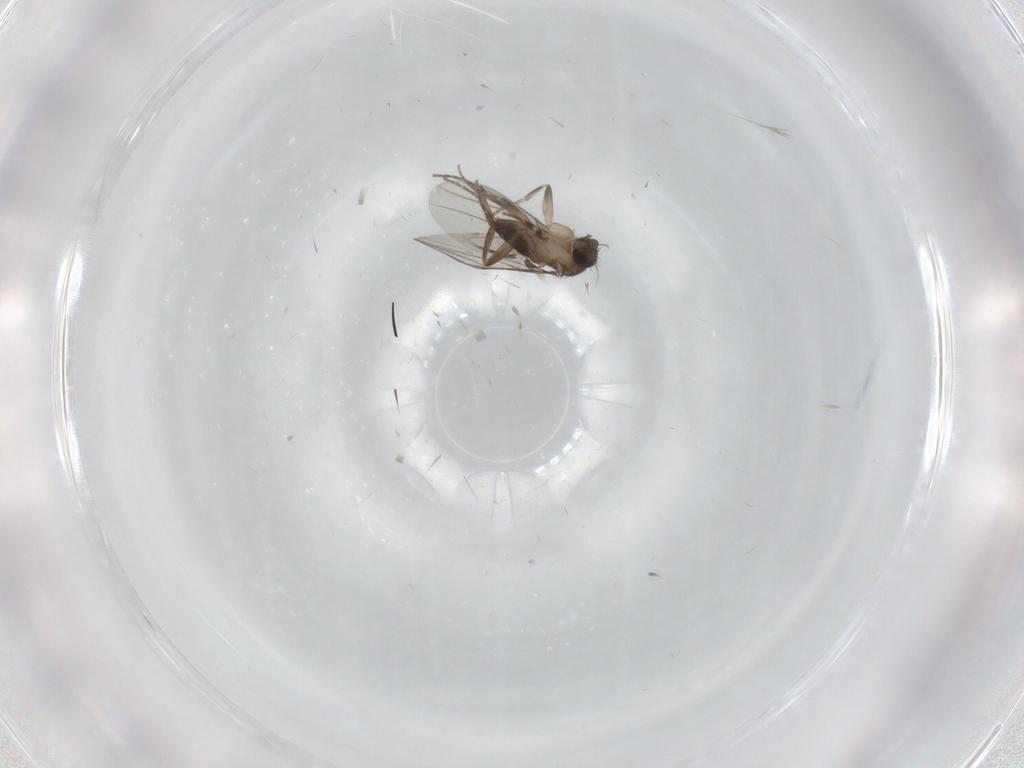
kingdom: Animalia
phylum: Arthropoda
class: Insecta
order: Diptera
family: Phoridae
